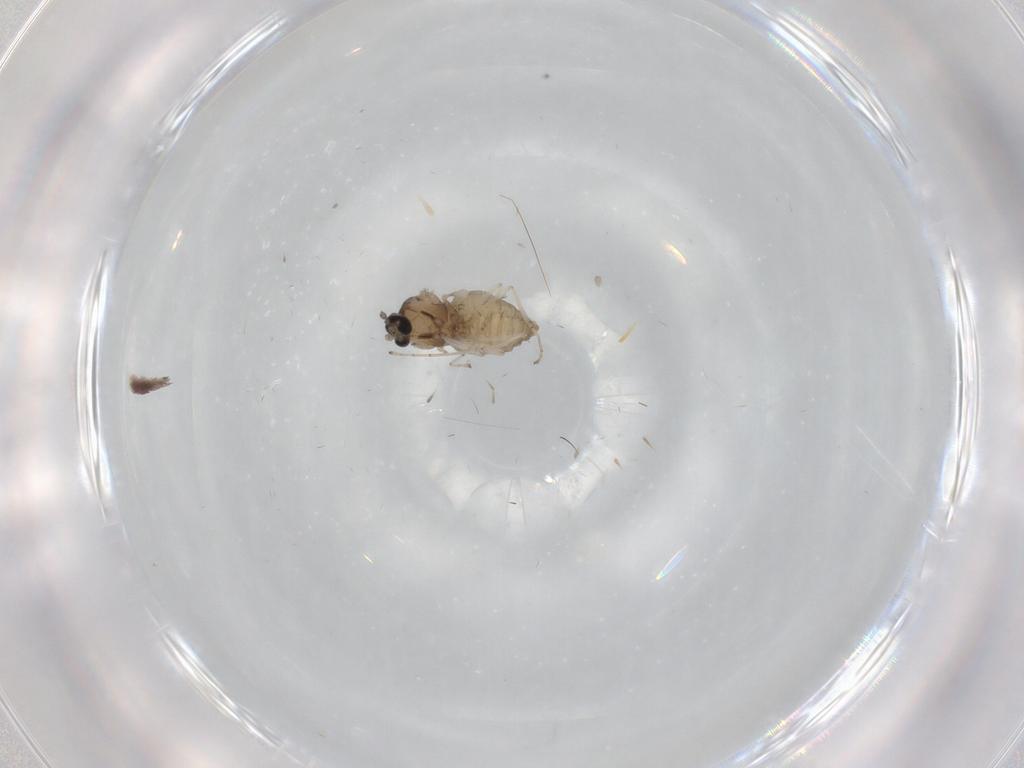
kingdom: Animalia
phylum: Arthropoda
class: Insecta
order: Diptera
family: Cecidomyiidae
